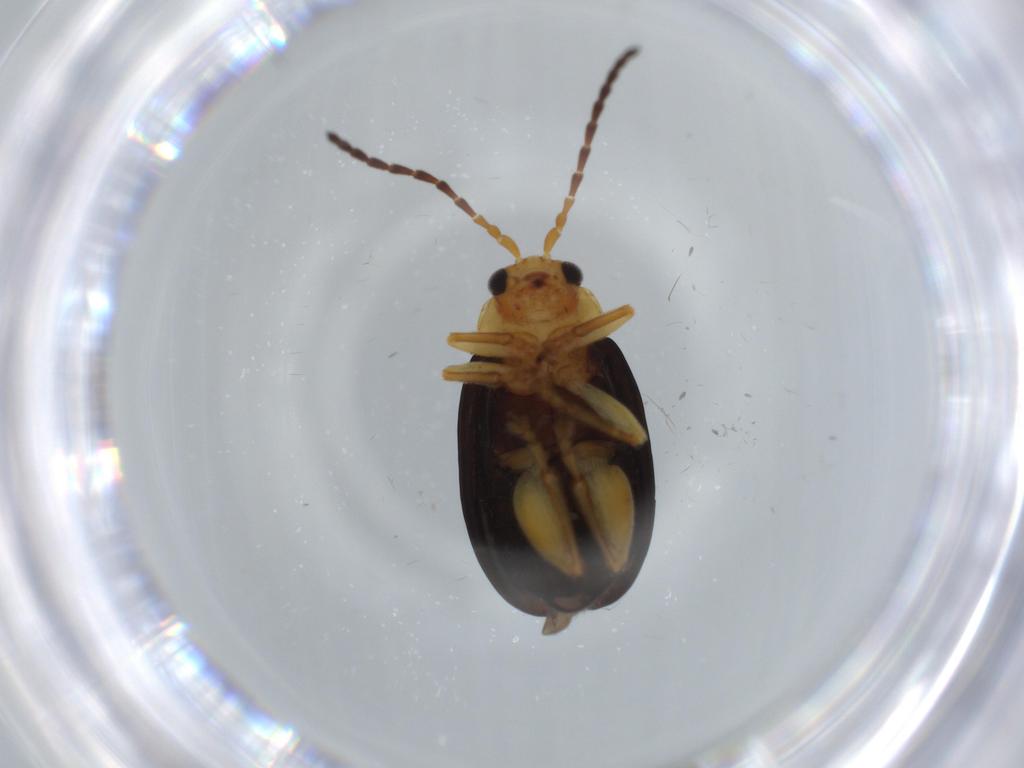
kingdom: Animalia
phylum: Arthropoda
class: Insecta
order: Coleoptera
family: Chrysomelidae
